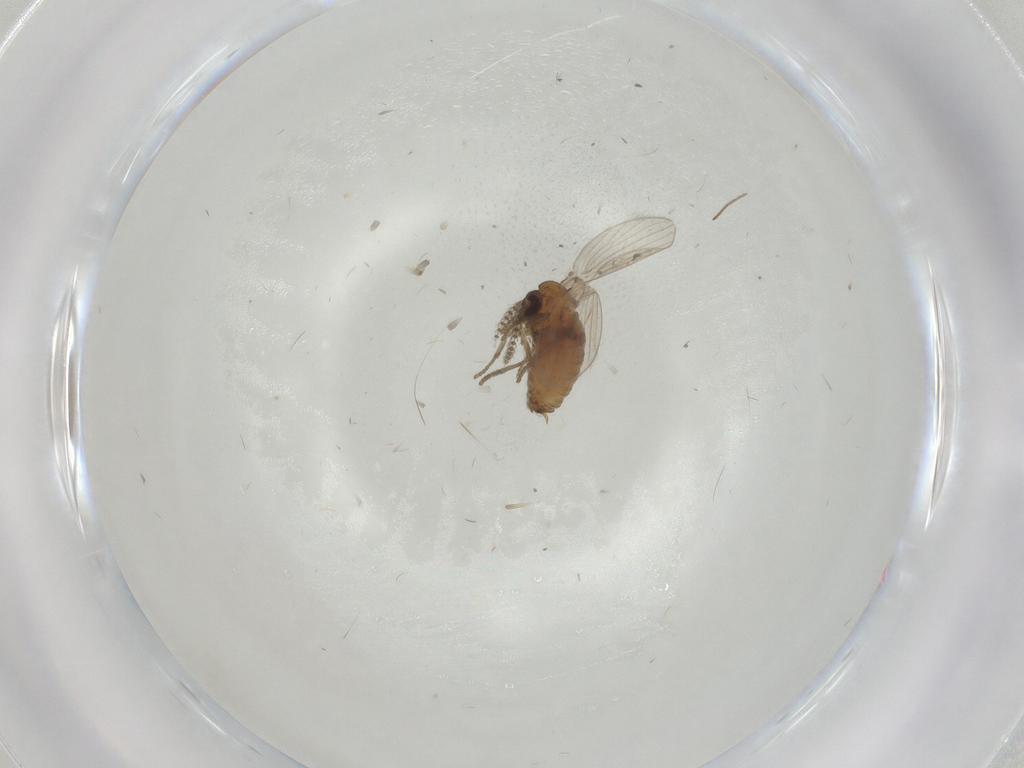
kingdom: Animalia
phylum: Arthropoda
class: Insecta
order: Diptera
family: Psychodidae
